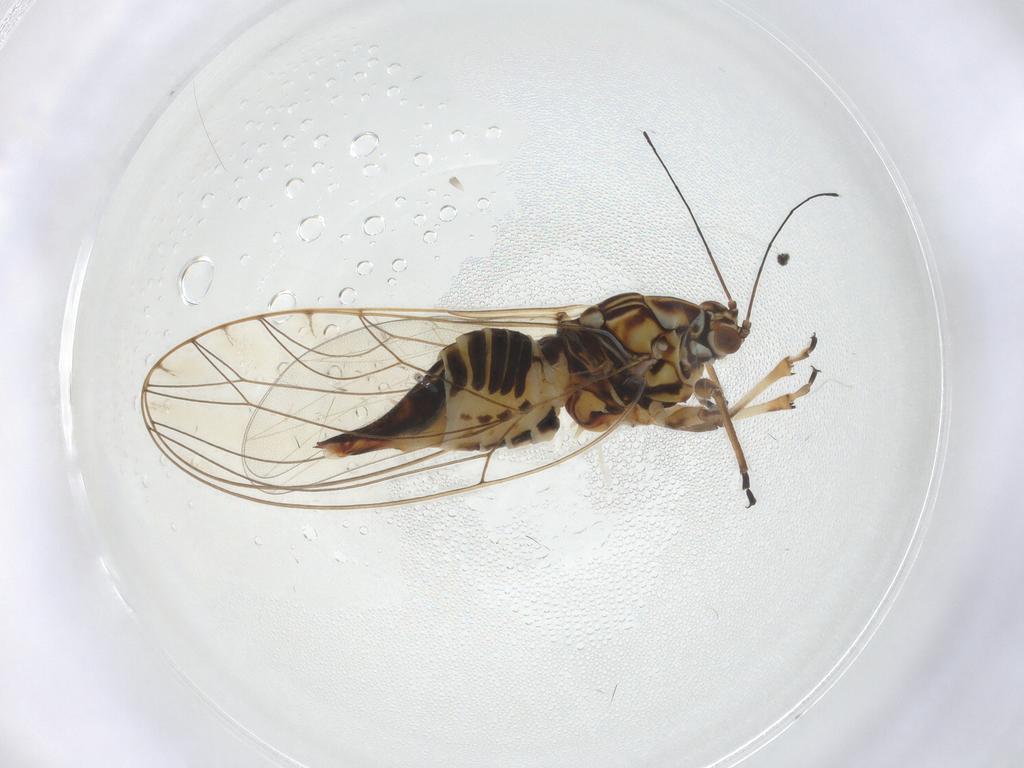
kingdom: Animalia
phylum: Arthropoda
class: Insecta
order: Hemiptera
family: Triozidae
